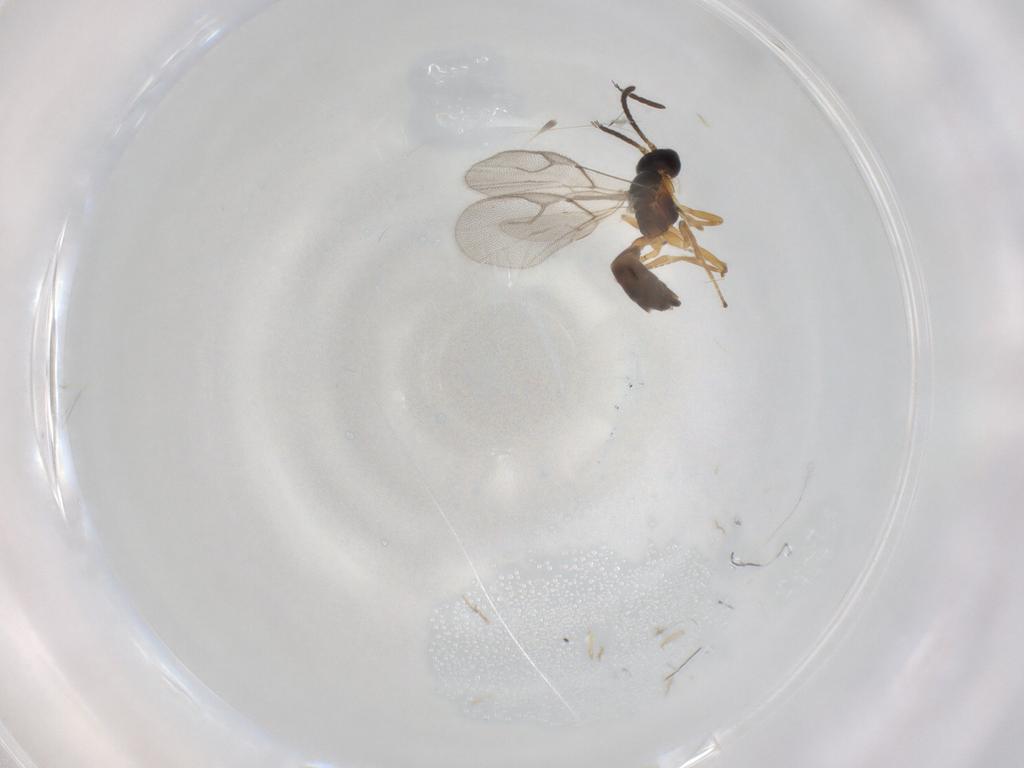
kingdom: Animalia
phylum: Arthropoda
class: Insecta
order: Hymenoptera
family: Braconidae
